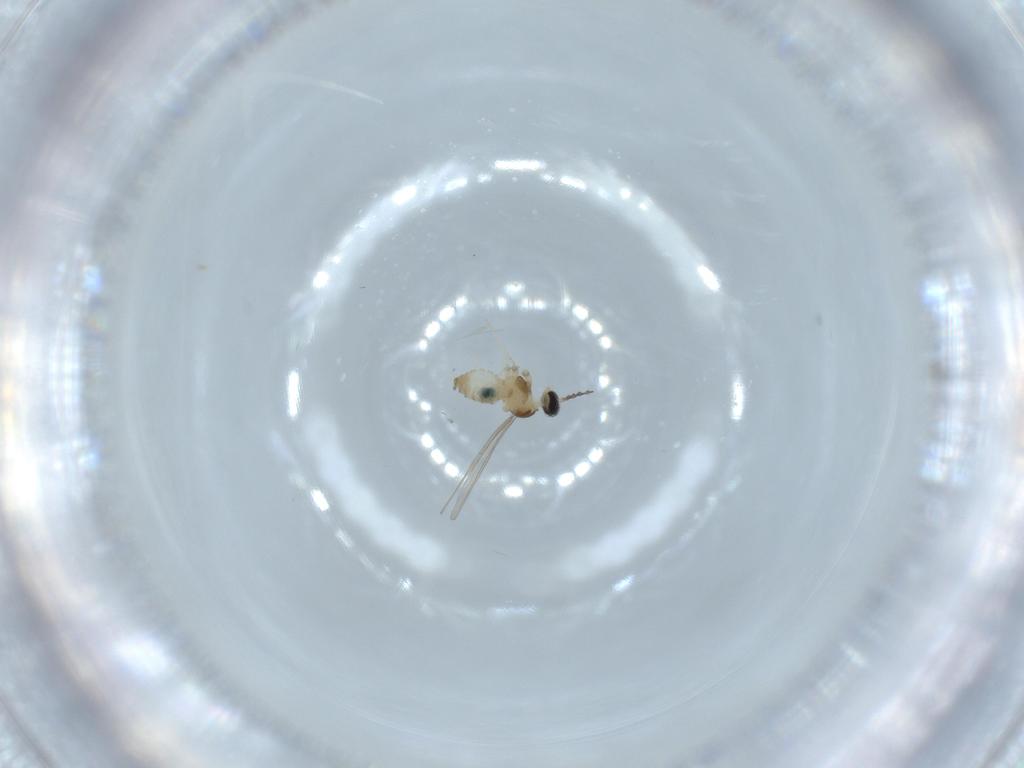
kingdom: Animalia
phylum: Arthropoda
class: Insecta
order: Diptera
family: Cecidomyiidae
